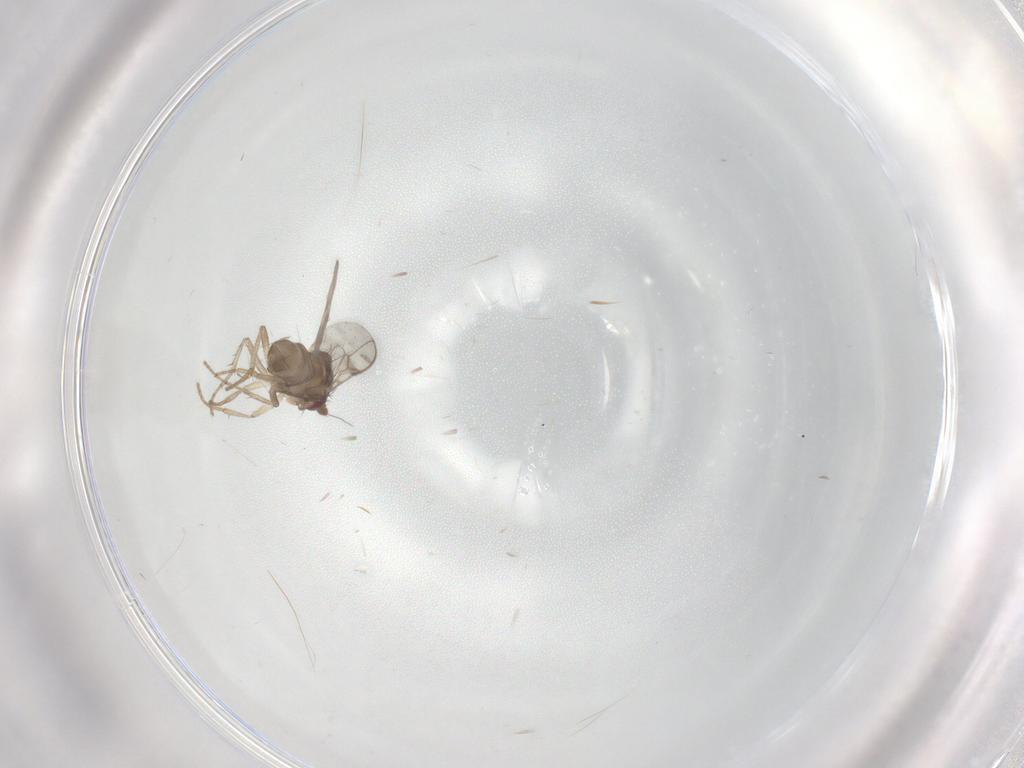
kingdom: Animalia
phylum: Arthropoda
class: Insecta
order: Diptera
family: Sphaeroceridae
